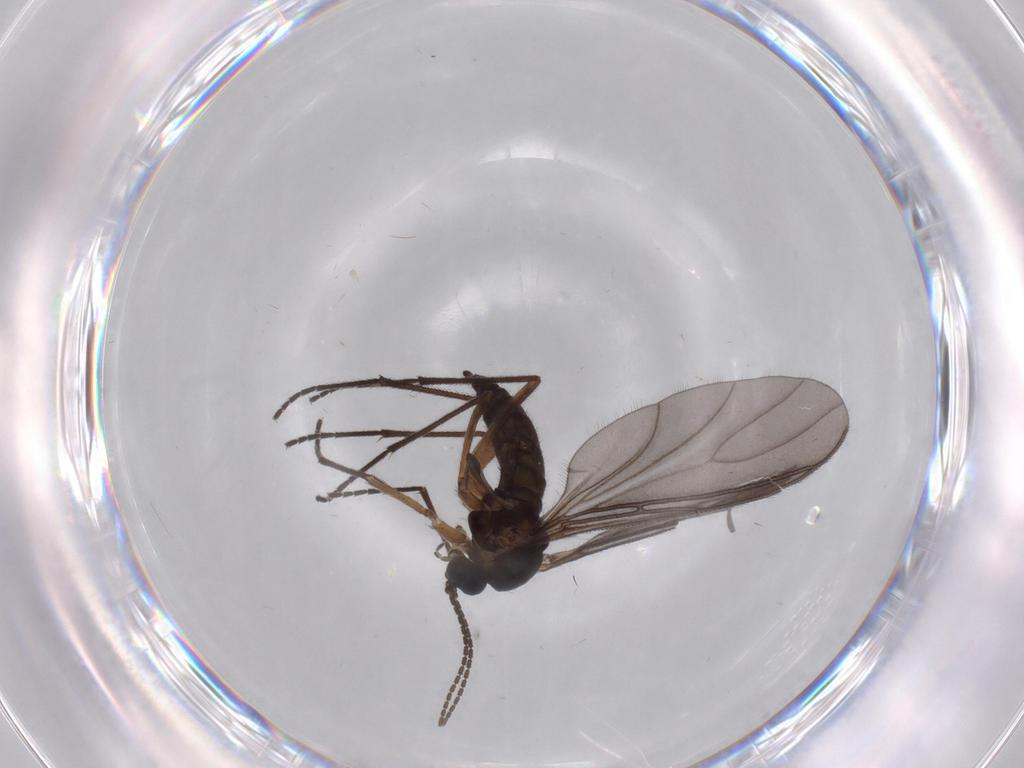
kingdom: Animalia
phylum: Arthropoda
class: Insecta
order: Diptera
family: Sciaridae
